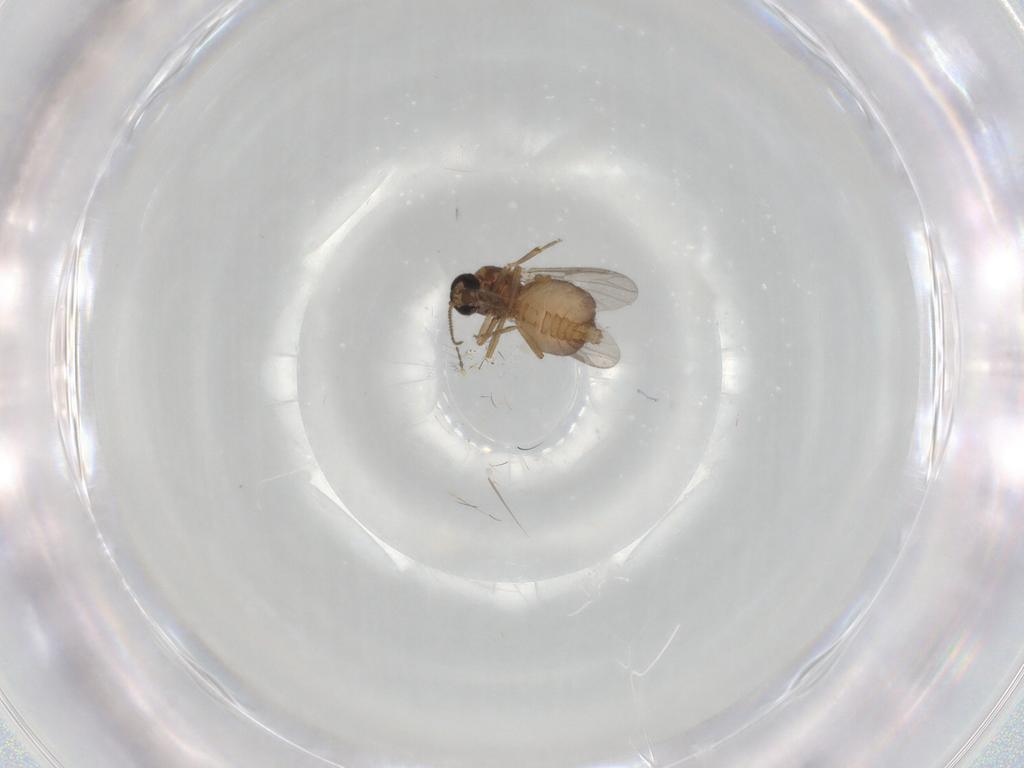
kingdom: Animalia
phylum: Arthropoda
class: Insecta
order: Diptera
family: Ceratopogonidae
